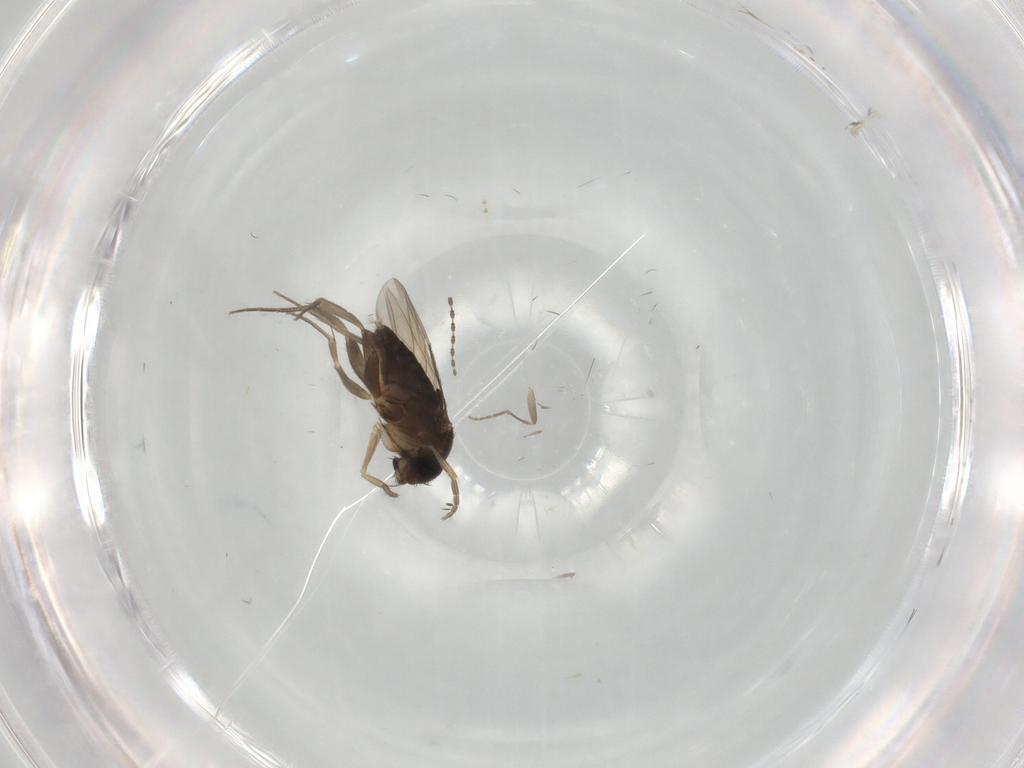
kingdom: Animalia
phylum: Arthropoda
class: Insecta
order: Diptera
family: Phoridae
